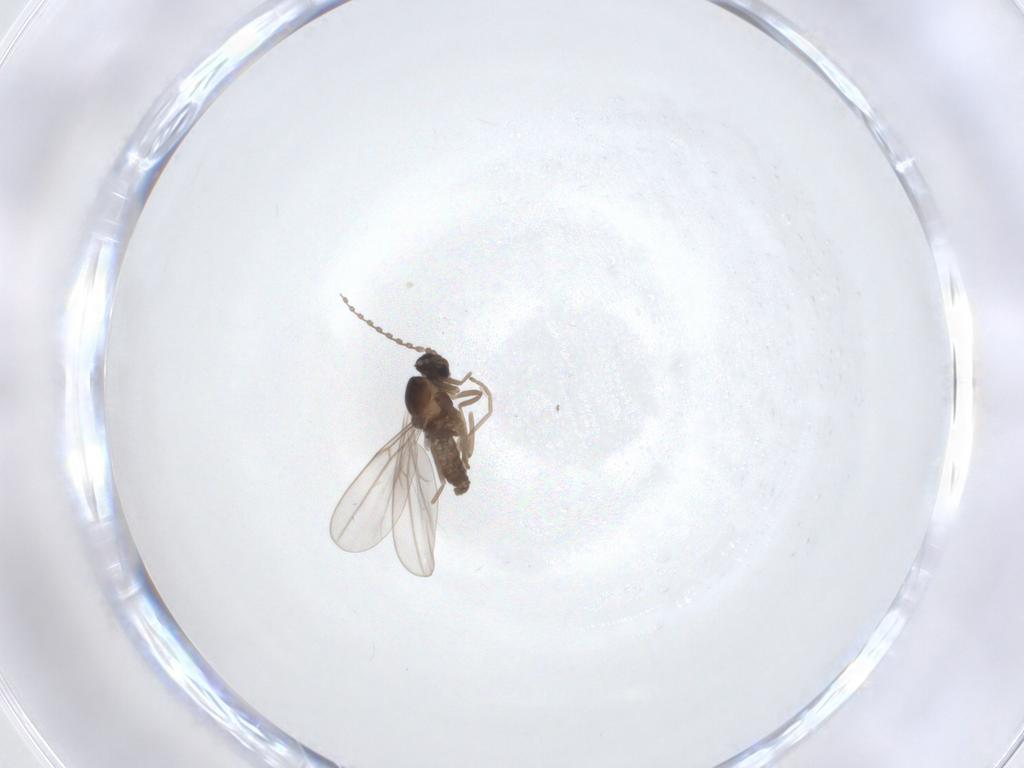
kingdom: Animalia
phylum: Arthropoda
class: Insecta
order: Diptera
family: Cecidomyiidae
